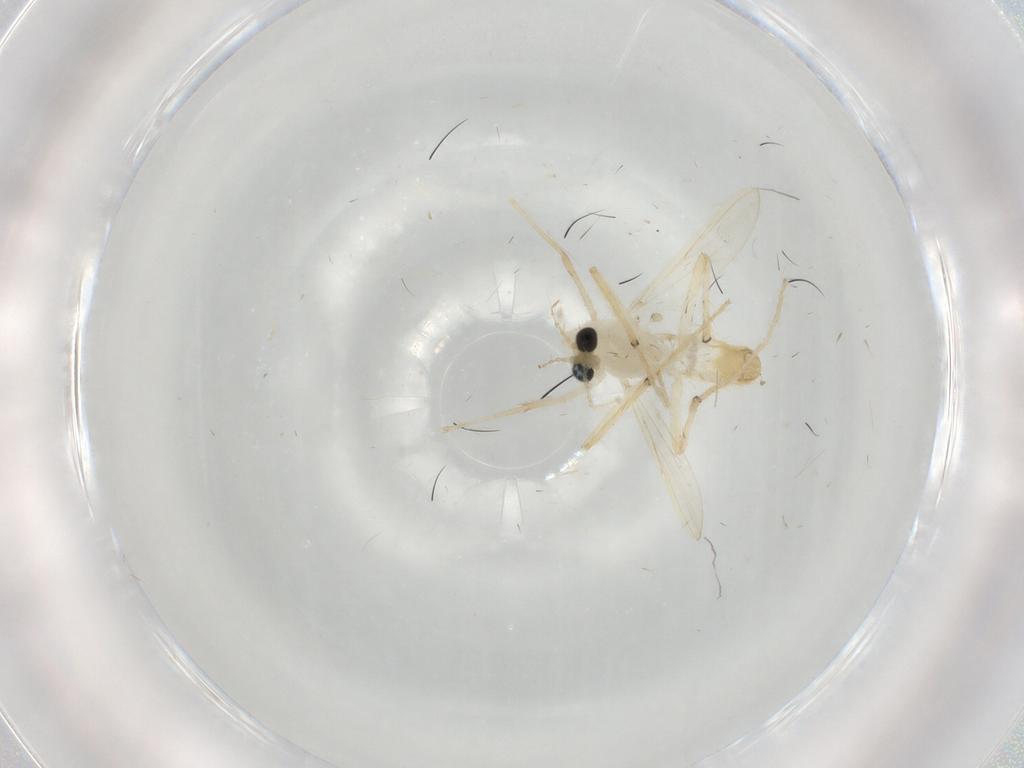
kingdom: Animalia
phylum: Arthropoda
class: Insecta
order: Diptera
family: Chironomidae
